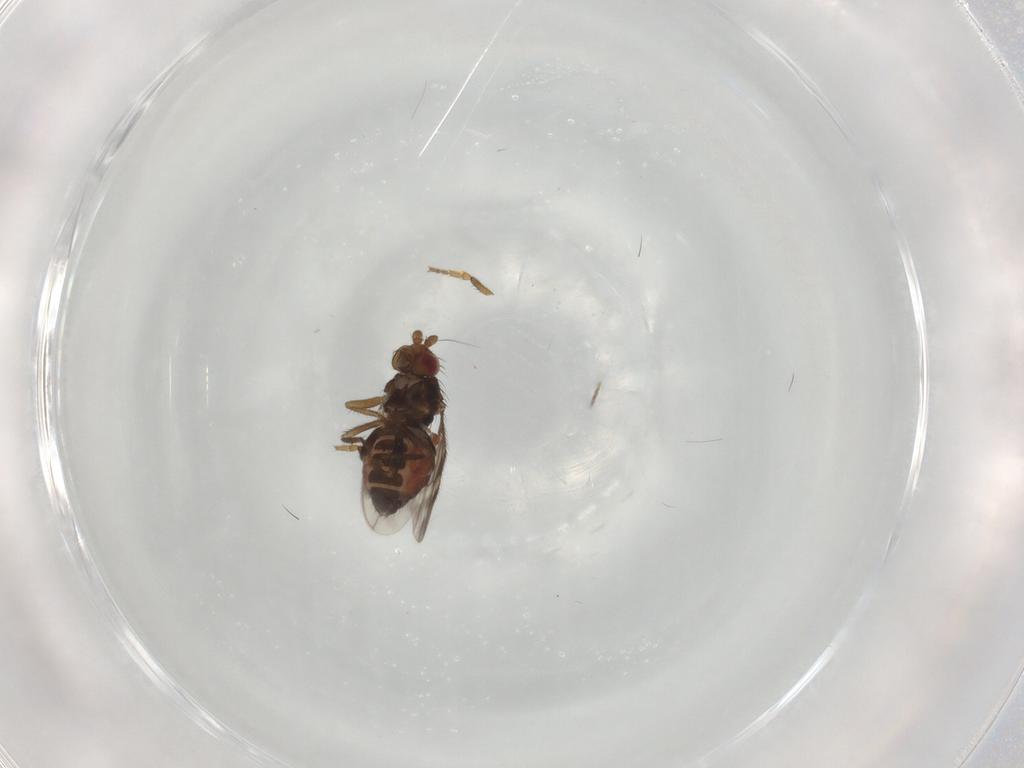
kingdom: Animalia
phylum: Arthropoda
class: Insecta
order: Diptera
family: Sphaeroceridae
